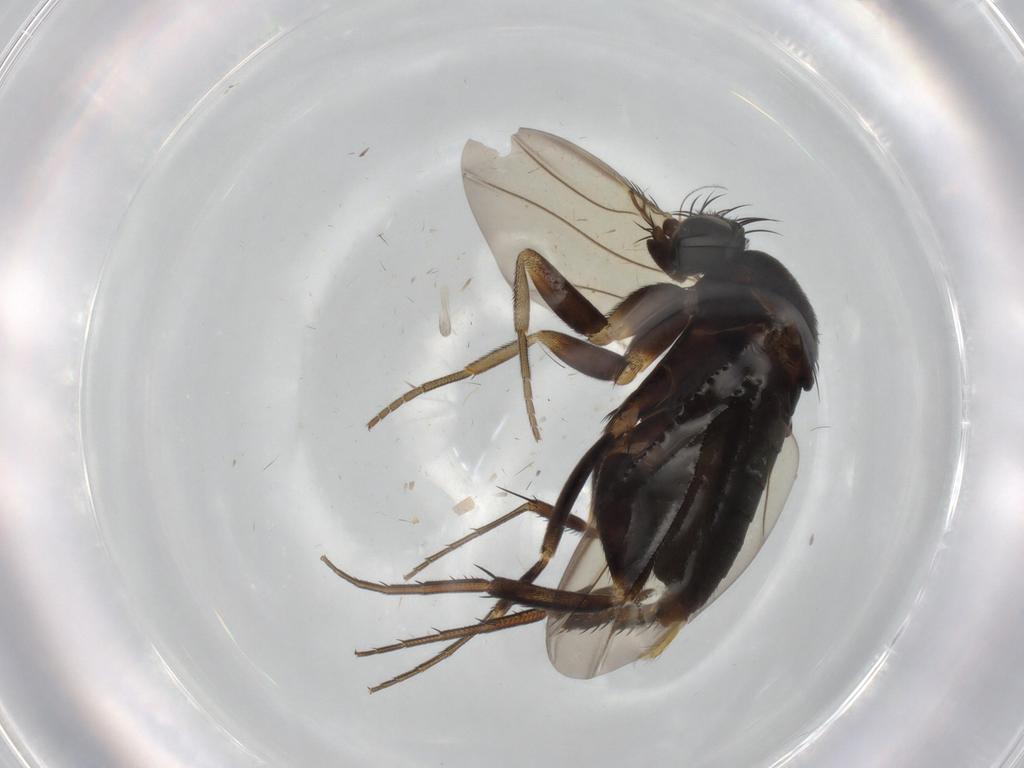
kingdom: Animalia
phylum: Arthropoda
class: Insecta
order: Diptera
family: Phoridae
